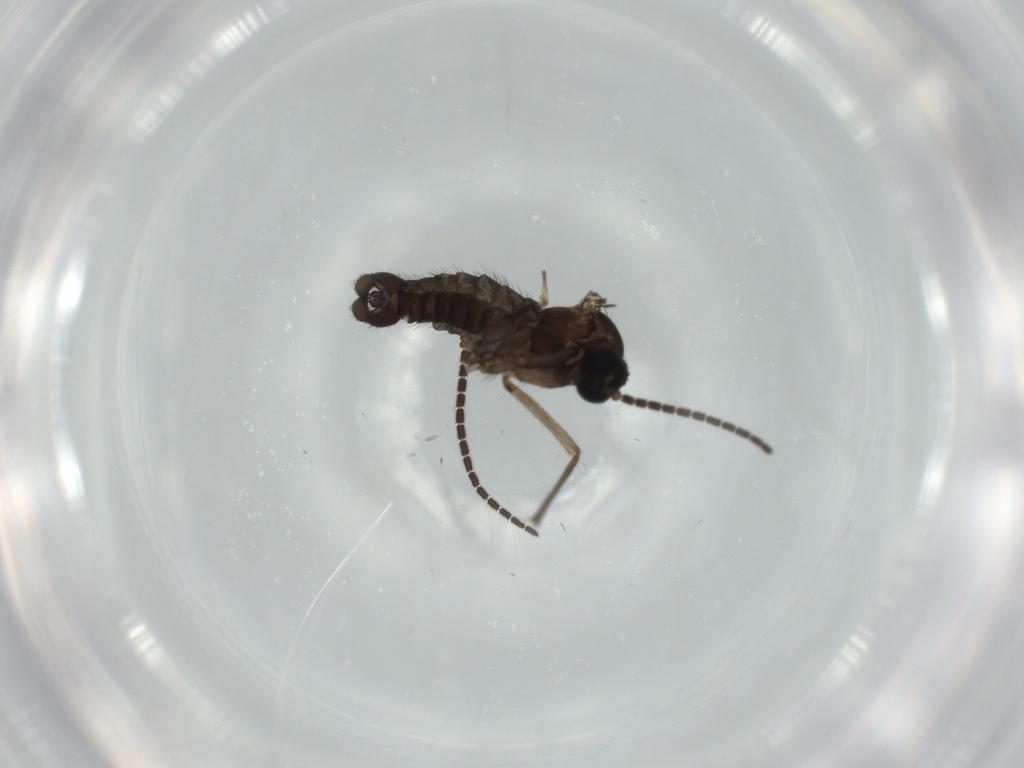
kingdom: Animalia
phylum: Arthropoda
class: Insecta
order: Diptera
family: Sciaridae
